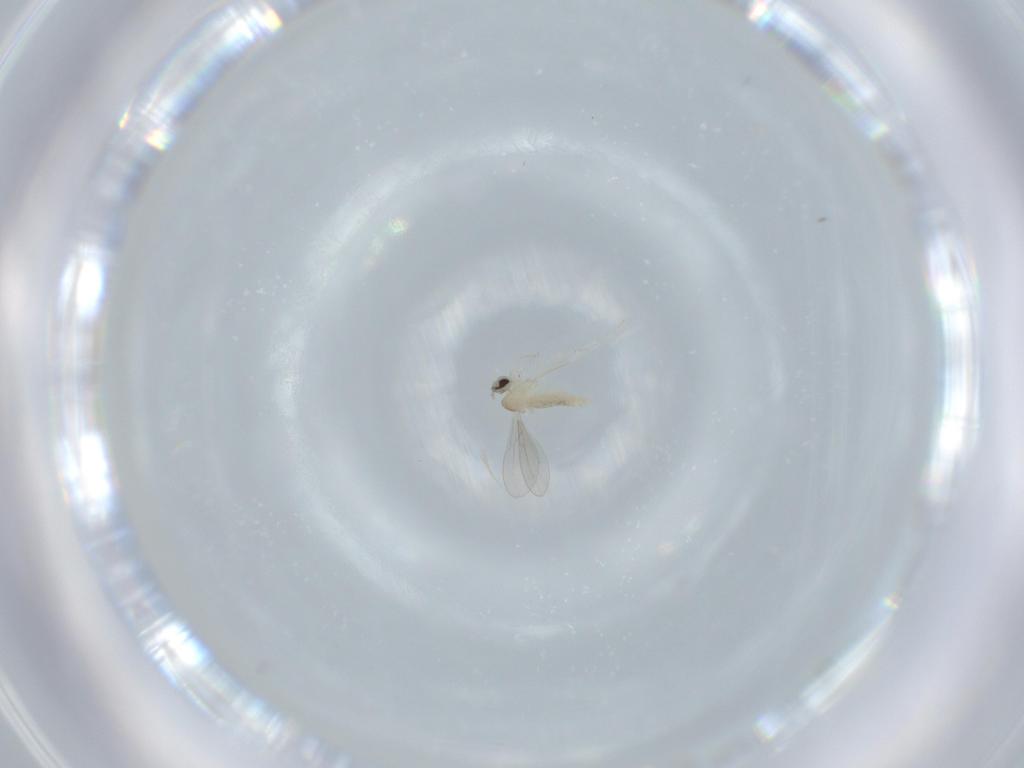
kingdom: Animalia
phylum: Arthropoda
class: Insecta
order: Diptera
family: Cecidomyiidae
